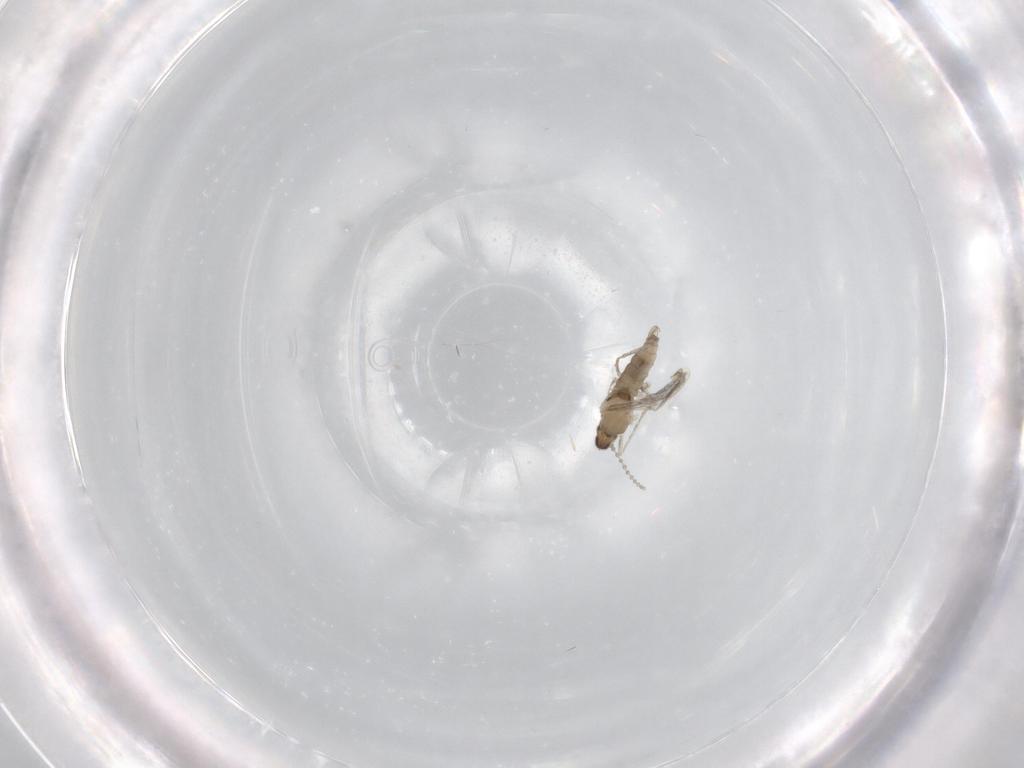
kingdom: Animalia
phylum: Arthropoda
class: Insecta
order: Diptera
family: Cecidomyiidae
